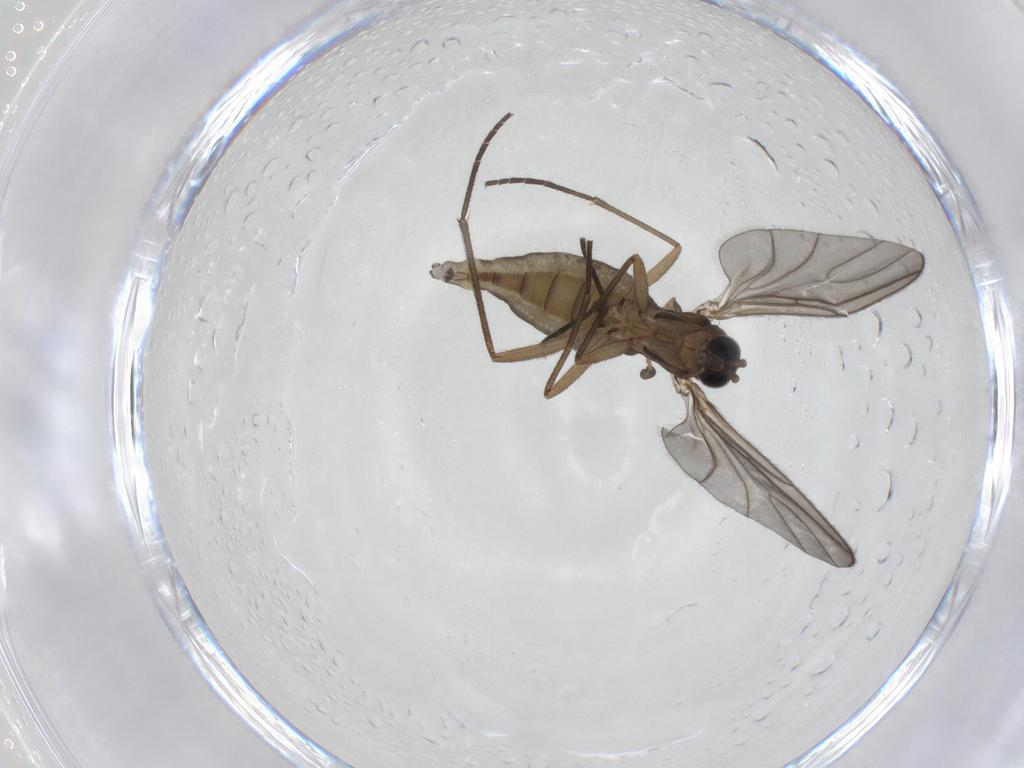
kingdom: Animalia
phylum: Arthropoda
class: Insecta
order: Diptera
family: Sciaridae
